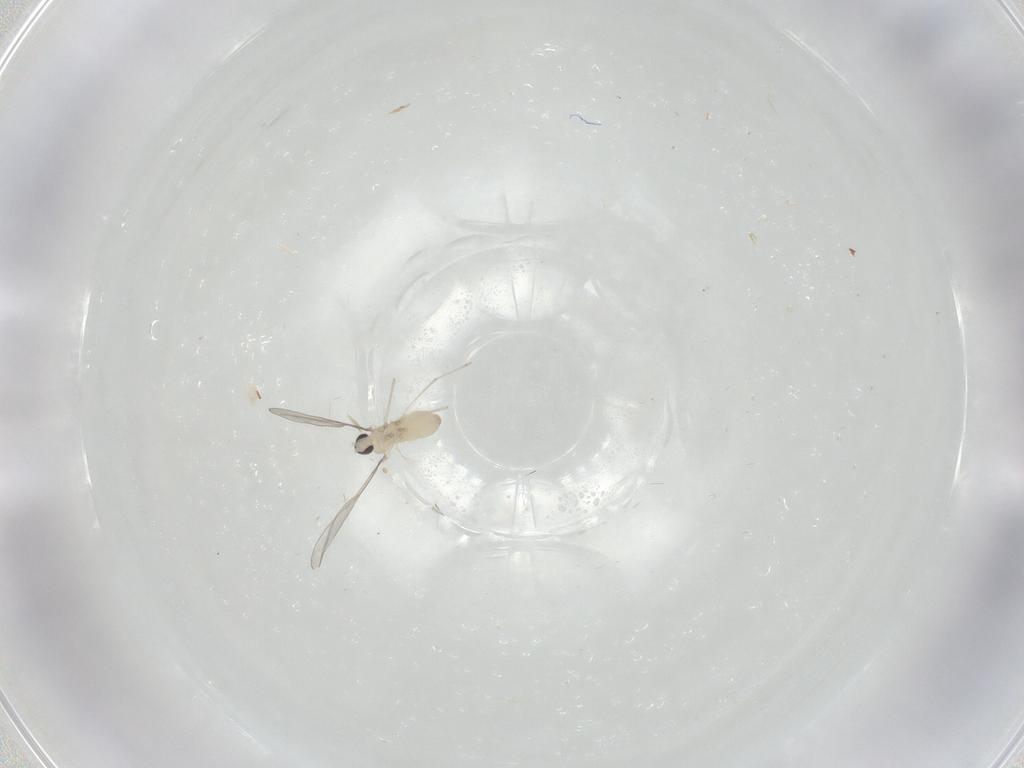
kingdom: Animalia
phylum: Arthropoda
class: Insecta
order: Diptera
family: Cecidomyiidae
